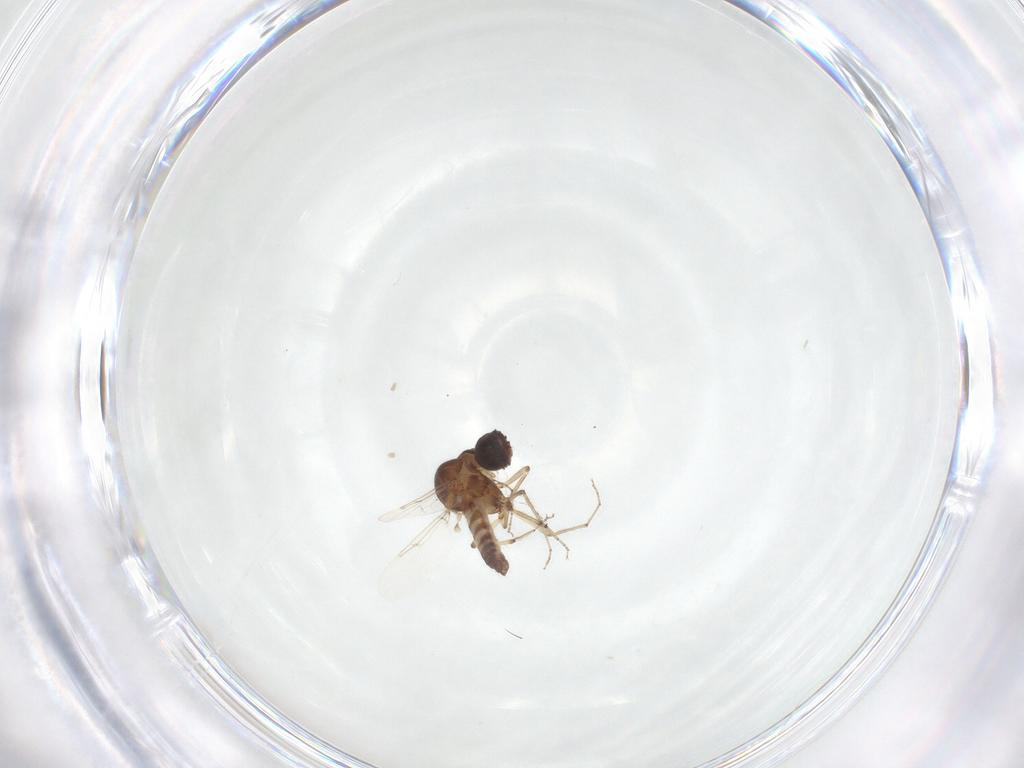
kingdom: Animalia
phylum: Arthropoda
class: Insecta
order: Diptera
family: Ceratopogonidae
